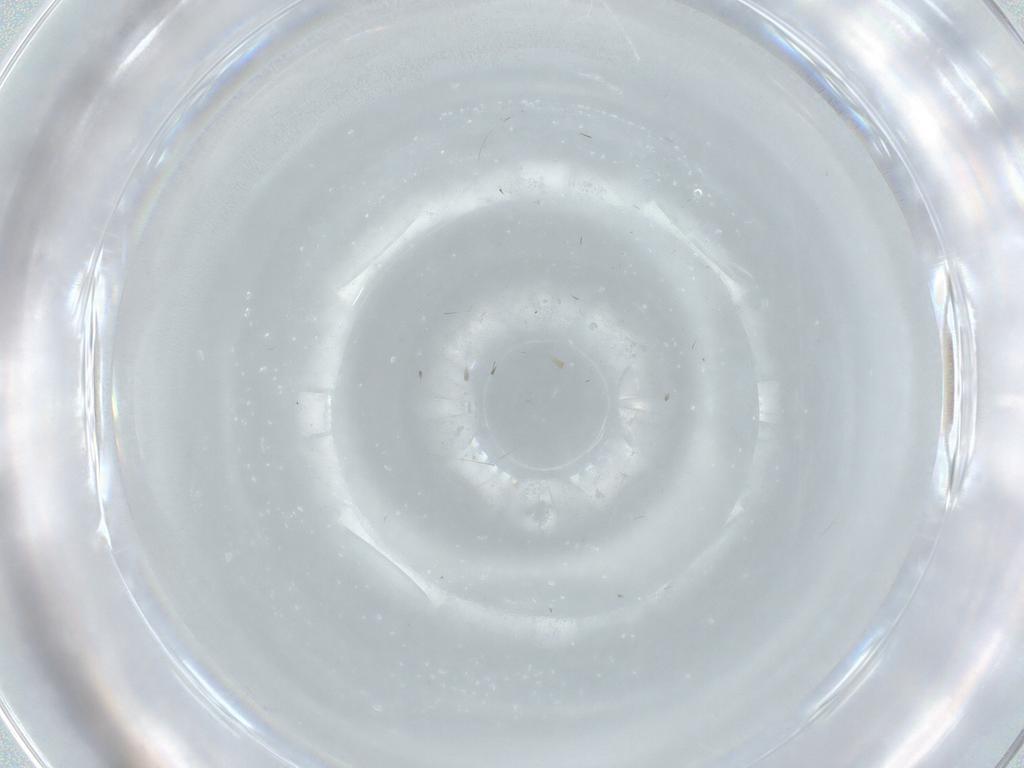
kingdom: Animalia
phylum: Arthropoda
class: Insecta
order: Diptera
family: Cecidomyiidae
